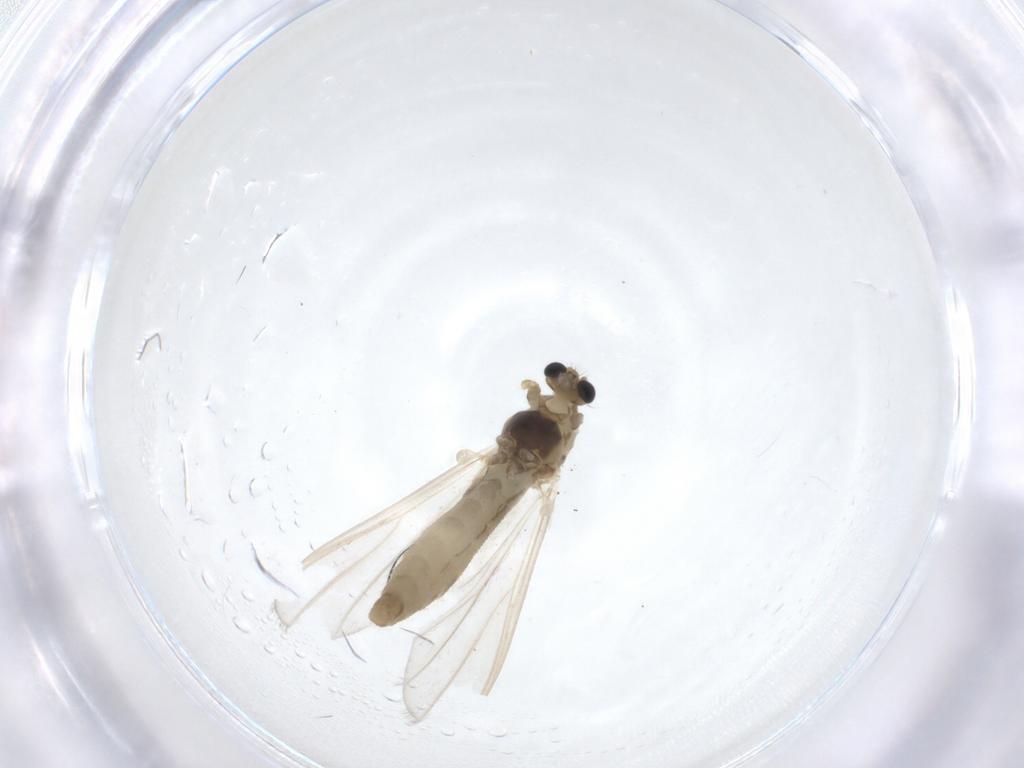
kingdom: Animalia
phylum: Arthropoda
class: Insecta
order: Diptera
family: Chironomidae
